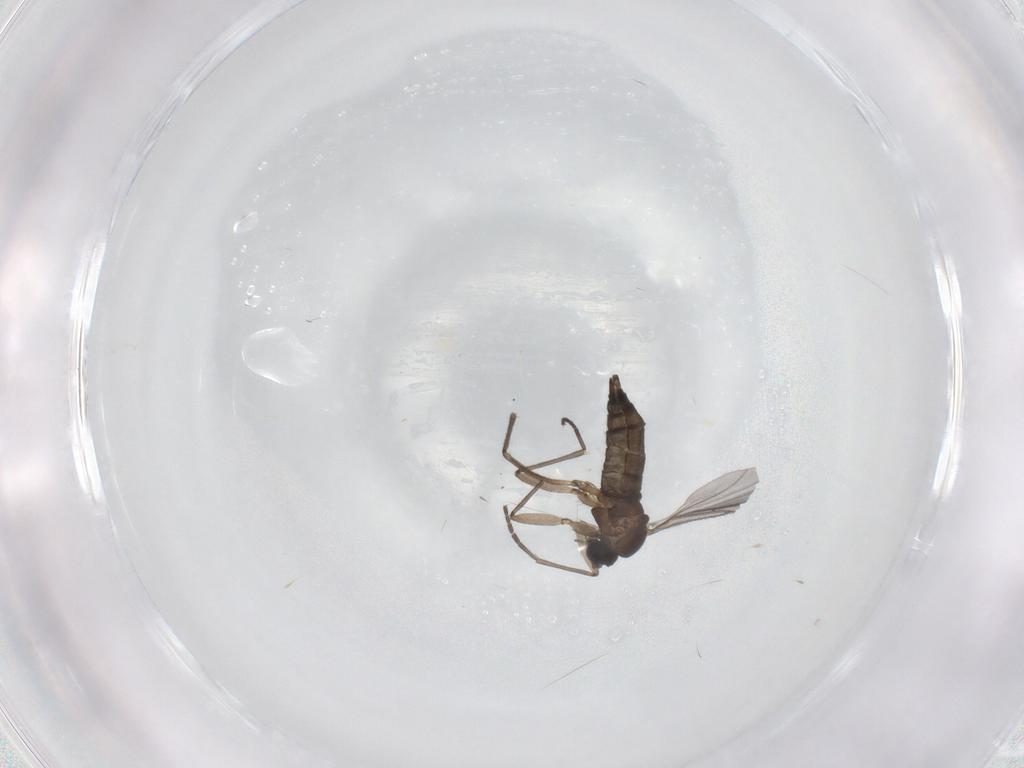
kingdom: Animalia
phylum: Arthropoda
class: Insecta
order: Diptera
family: Sciaridae
